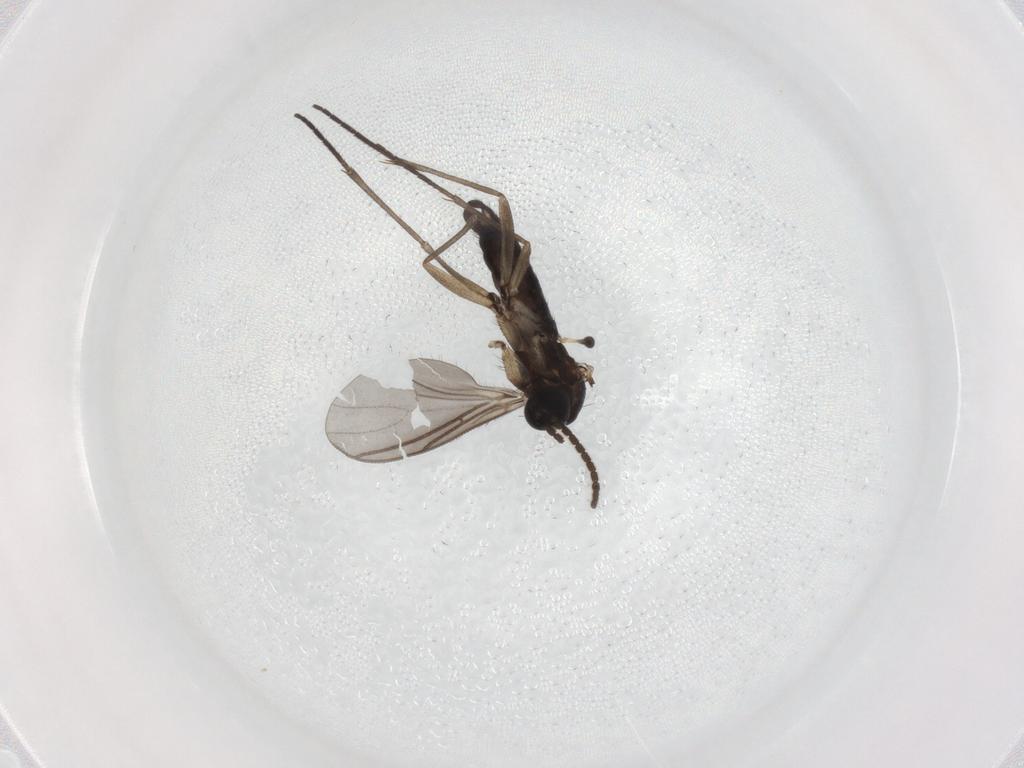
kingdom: Animalia
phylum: Arthropoda
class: Insecta
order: Diptera
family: Sciaridae
